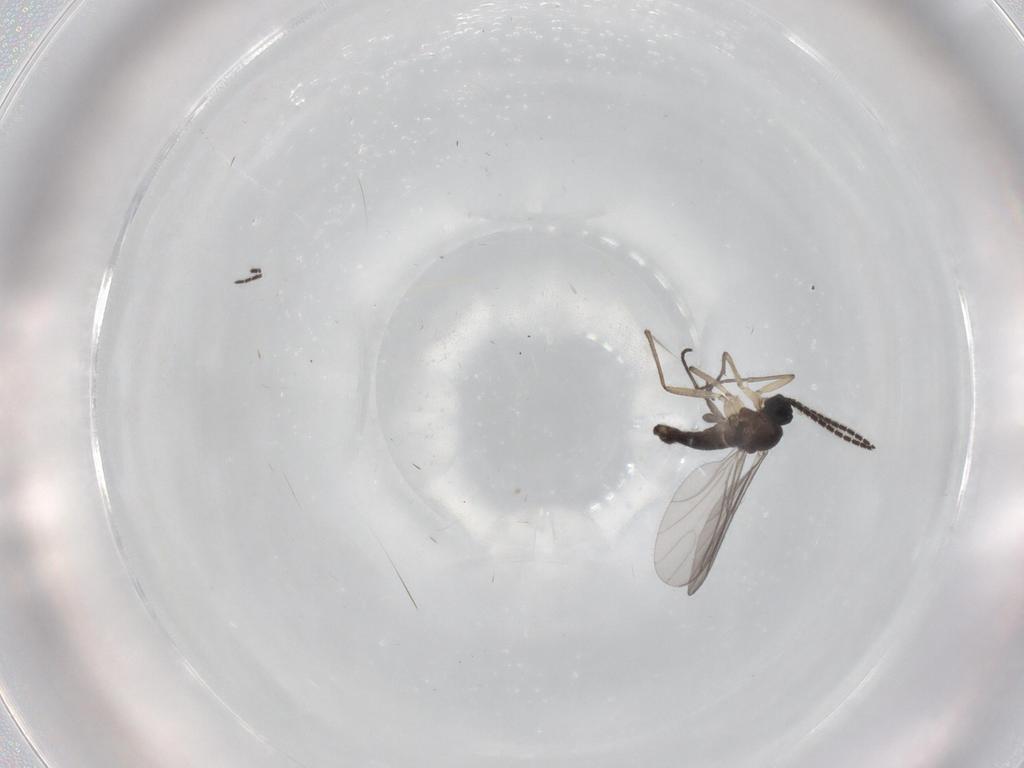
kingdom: Animalia
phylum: Arthropoda
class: Insecta
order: Diptera
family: Sciaridae
